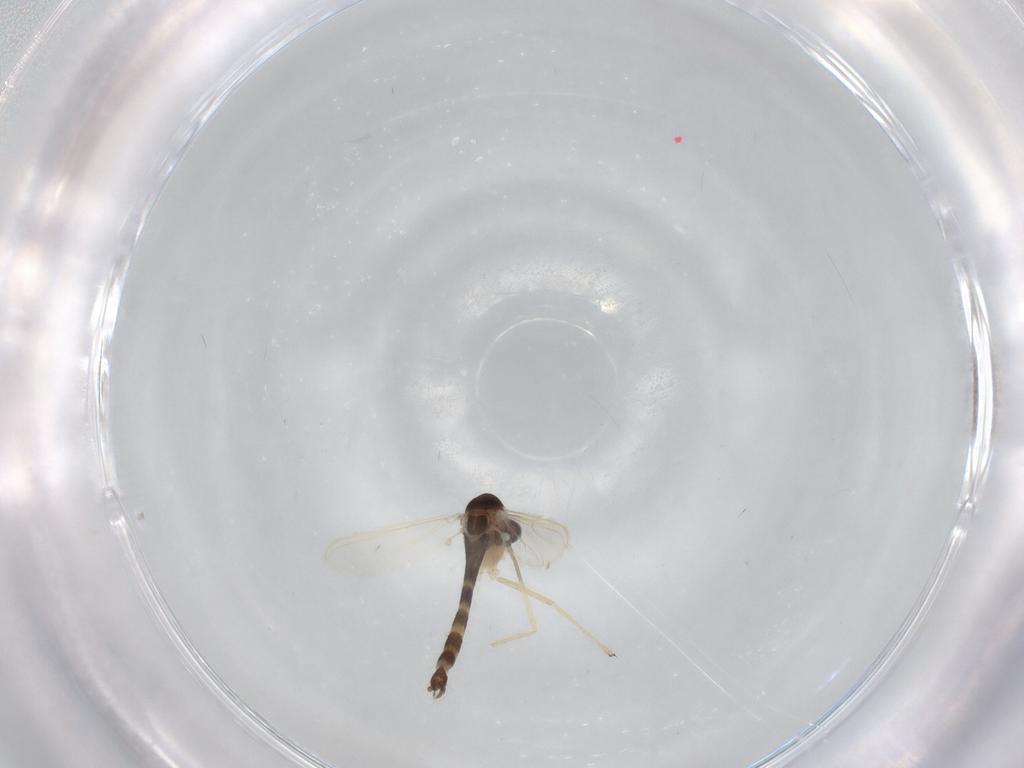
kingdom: Animalia
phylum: Arthropoda
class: Insecta
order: Diptera
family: Chironomidae
